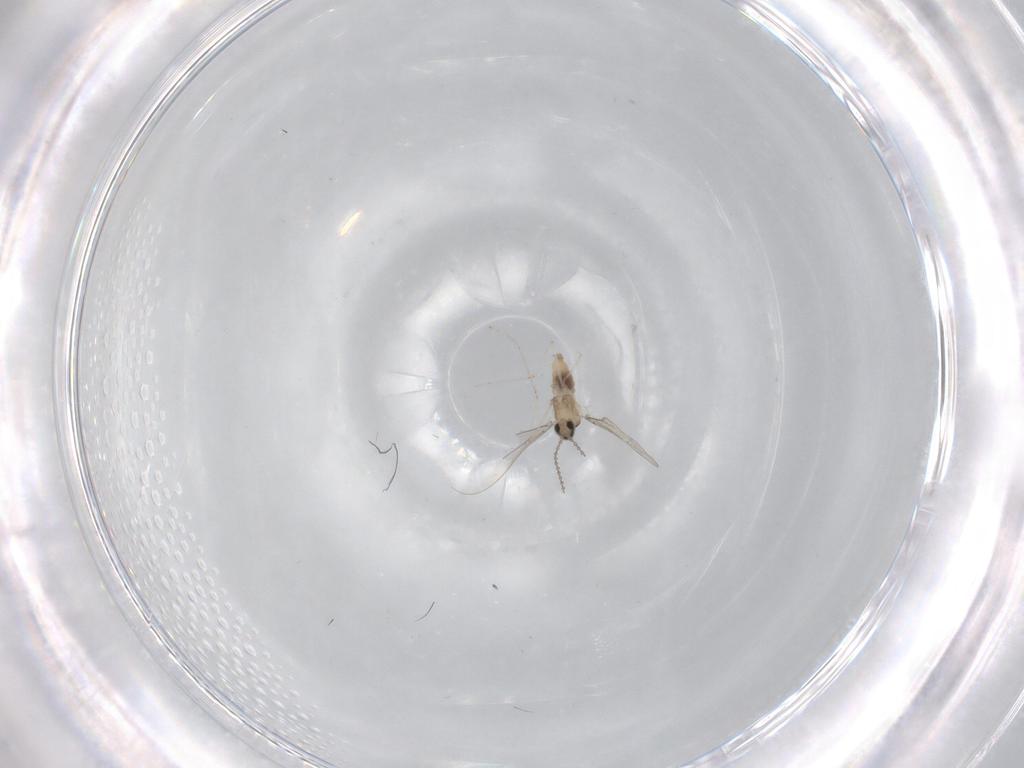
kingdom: Animalia
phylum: Arthropoda
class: Insecta
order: Diptera
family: Cecidomyiidae
